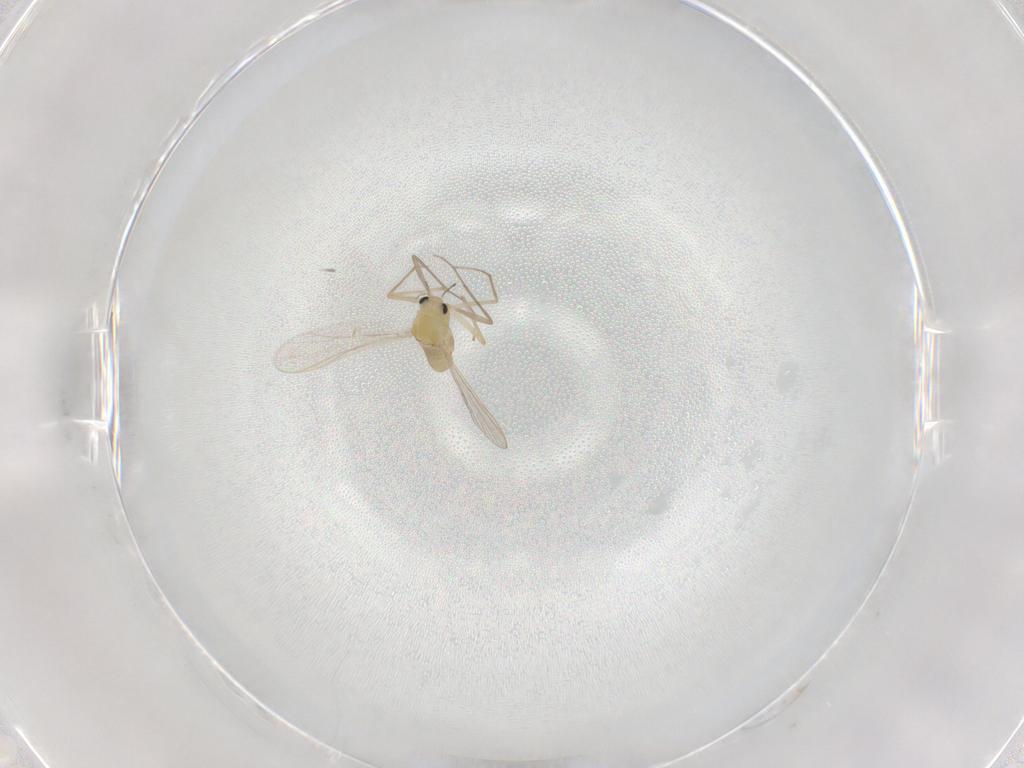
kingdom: Animalia
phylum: Arthropoda
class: Insecta
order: Diptera
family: Chironomidae
